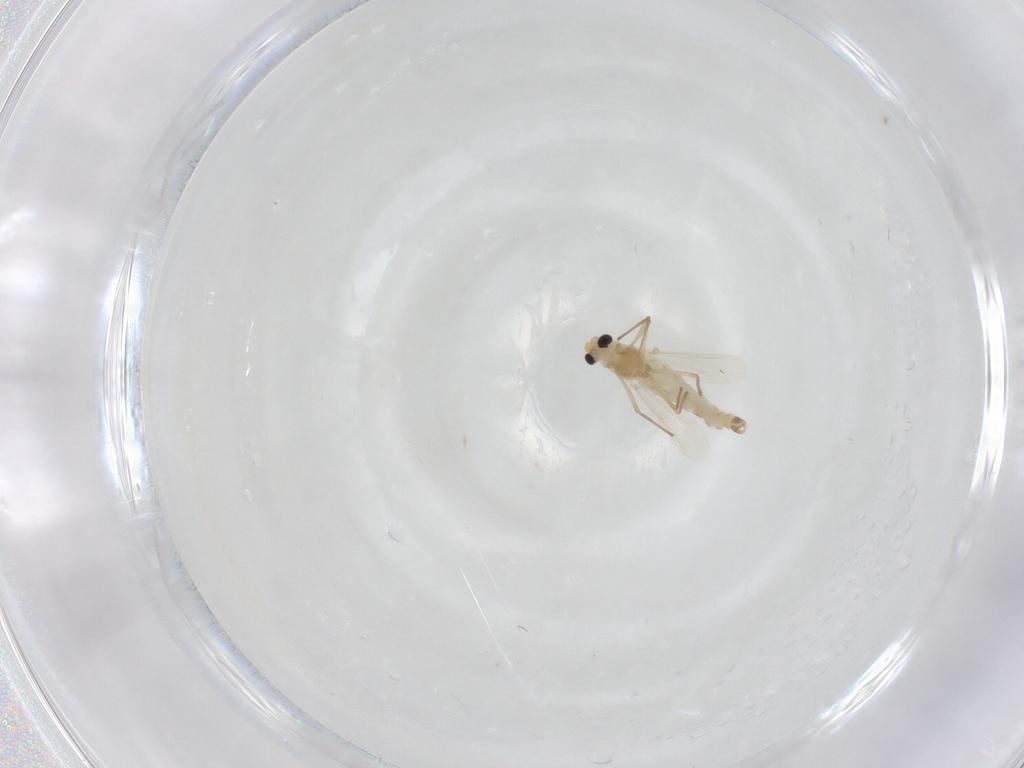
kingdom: Animalia
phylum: Arthropoda
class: Insecta
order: Diptera
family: Chironomidae
